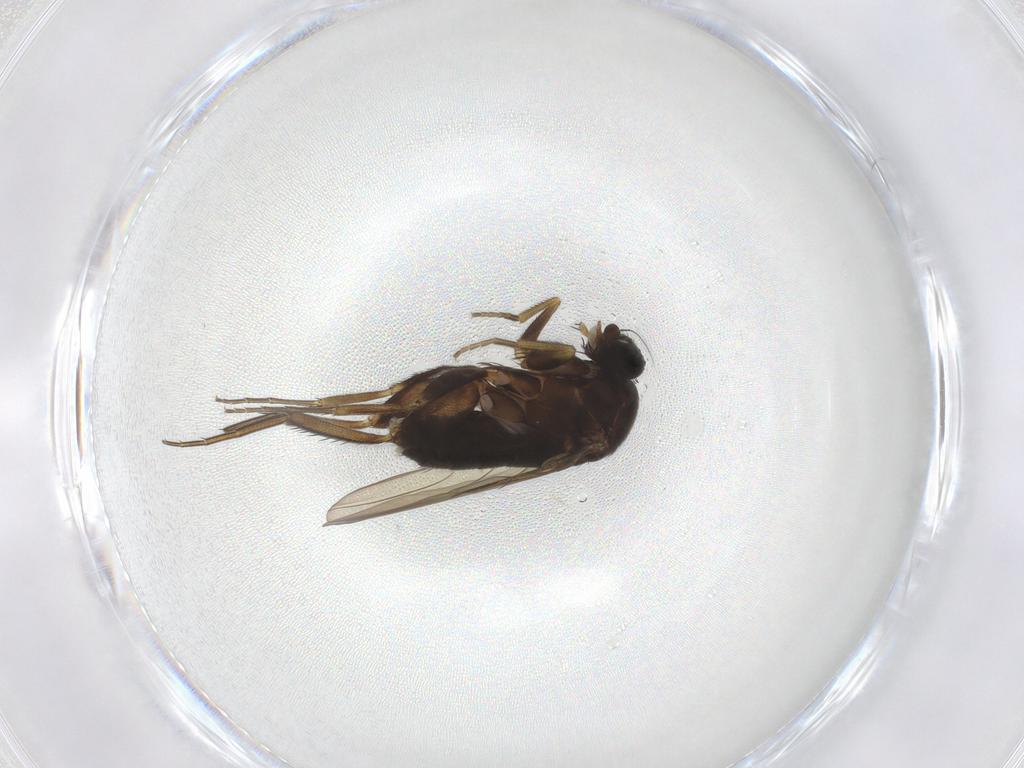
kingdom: Animalia
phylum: Arthropoda
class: Insecta
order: Diptera
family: Phoridae
